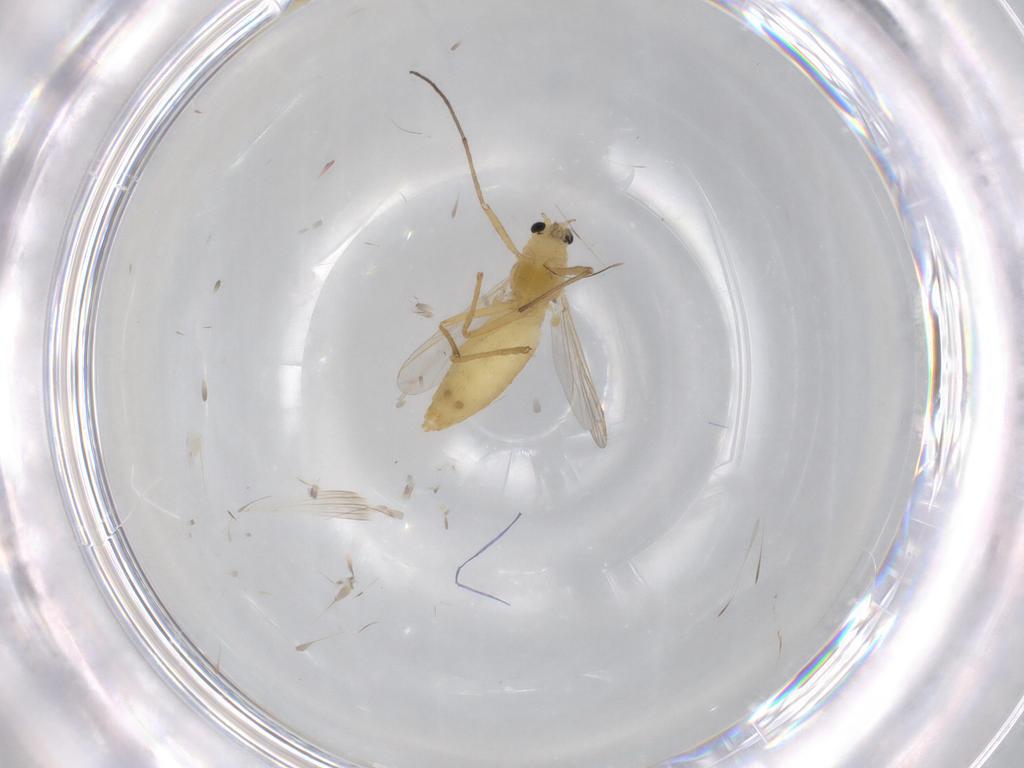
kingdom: Animalia
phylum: Arthropoda
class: Insecta
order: Diptera
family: Chironomidae
